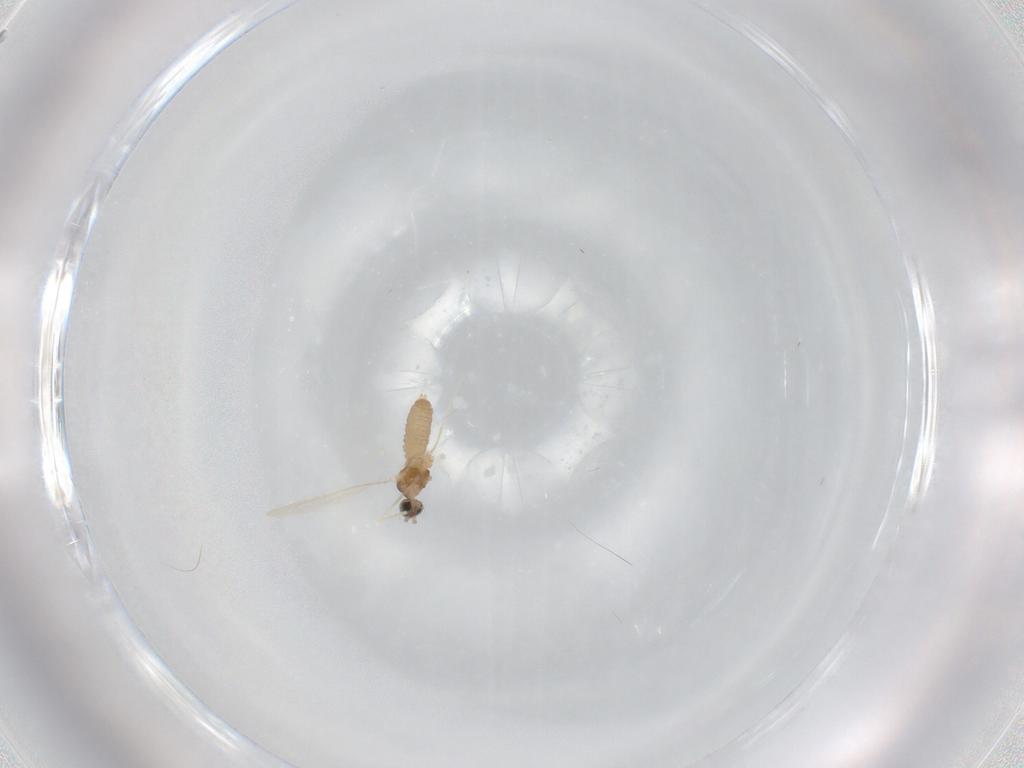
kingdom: Animalia
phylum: Arthropoda
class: Insecta
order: Diptera
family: Cecidomyiidae
